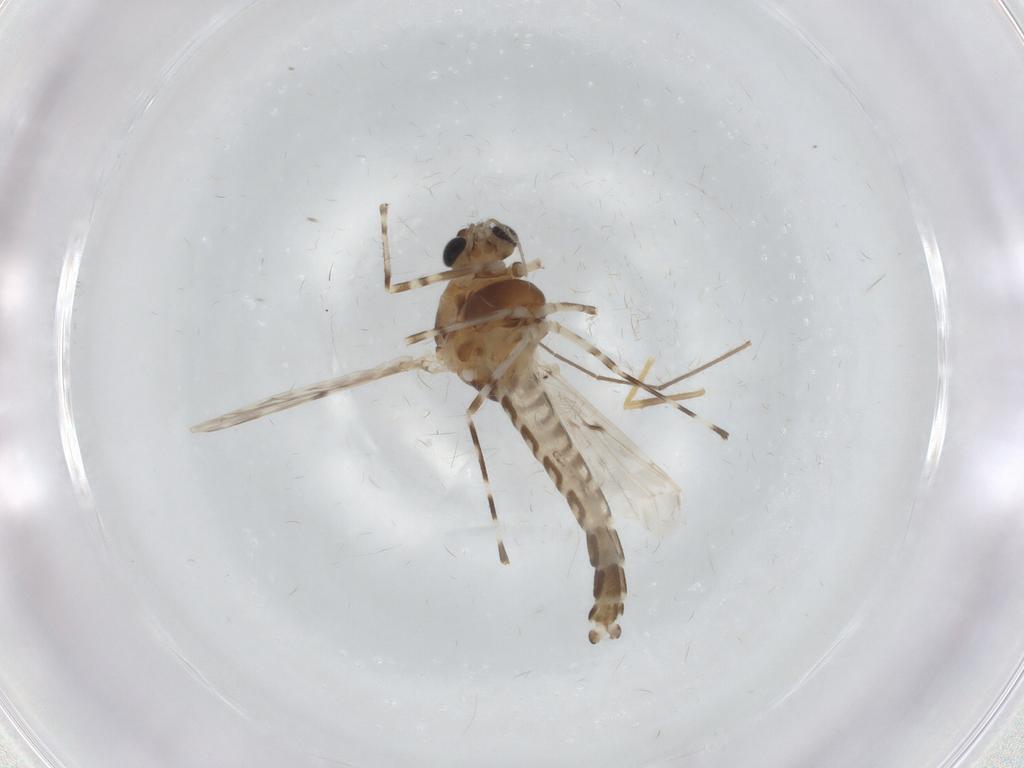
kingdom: Animalia
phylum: Arthropoda
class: Insecta
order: Diptera
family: Chironomidae
